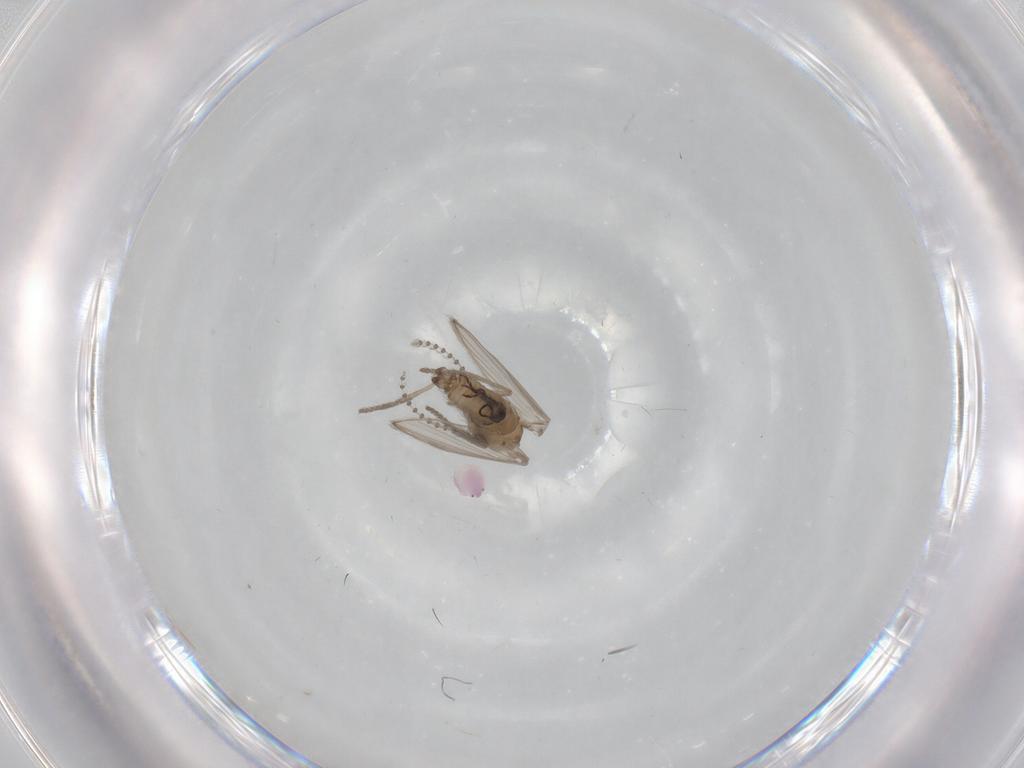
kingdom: Animalia
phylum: Arthropoda
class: Insecta
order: Diptera
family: Psychodidae
